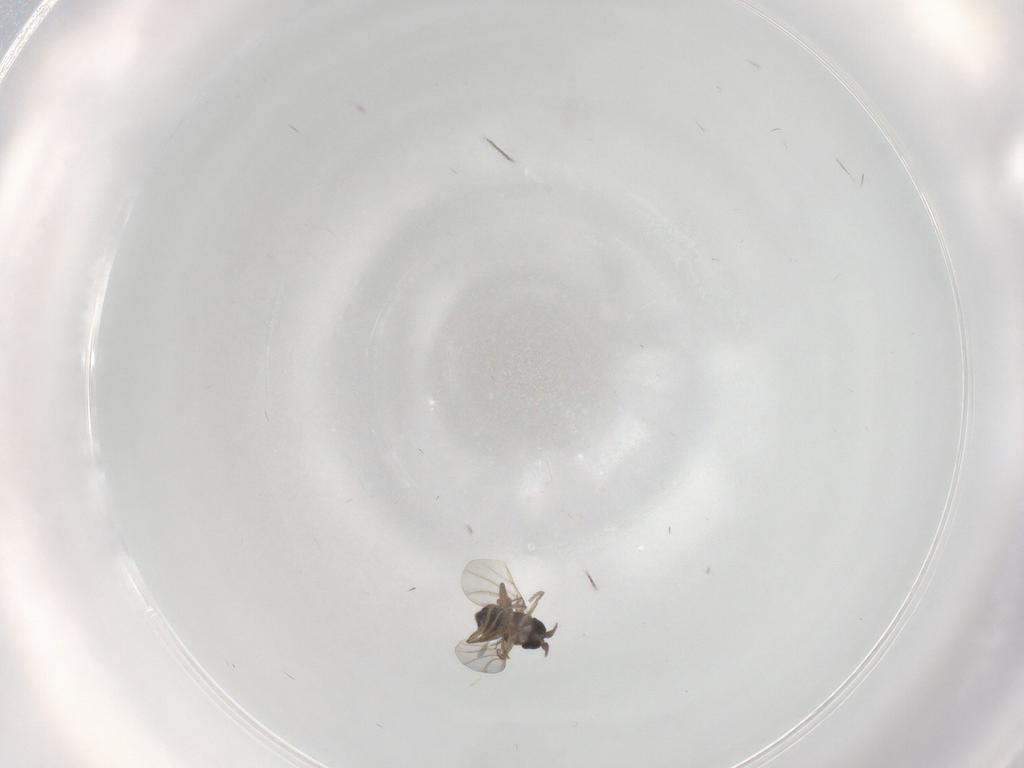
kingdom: Animalia
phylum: Arthropoda
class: Insecta
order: Diptera
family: Phoridae
